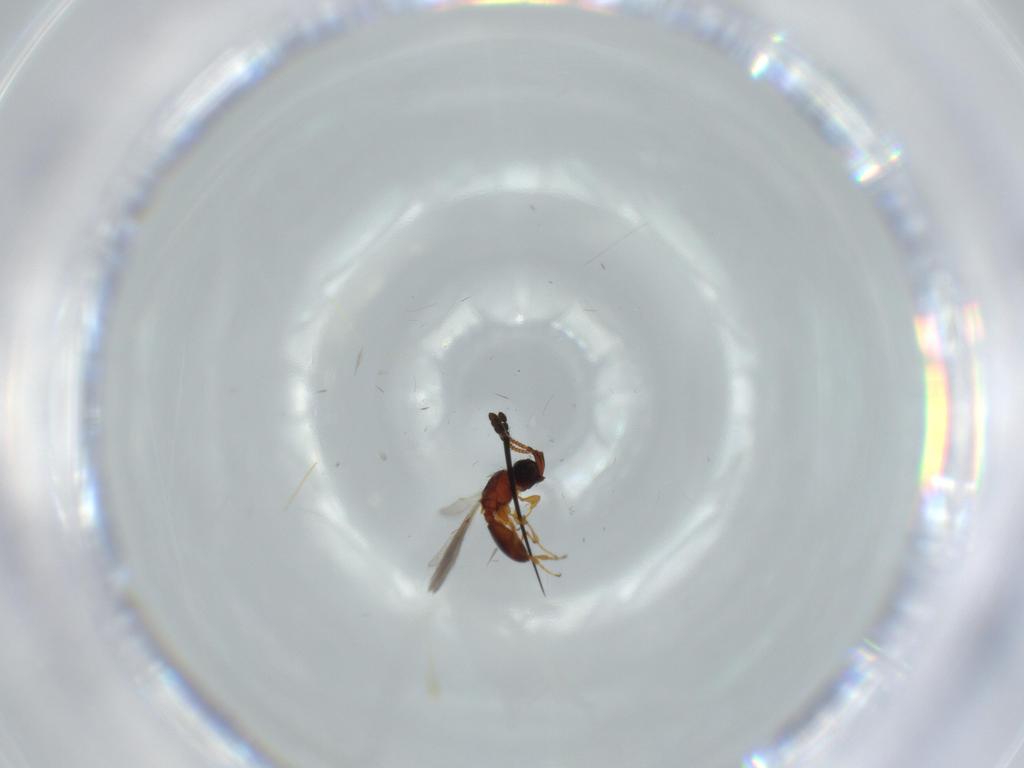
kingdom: Animalia
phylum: Arthropoda
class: Insecta
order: Hymenoptera
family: Diapriidae
